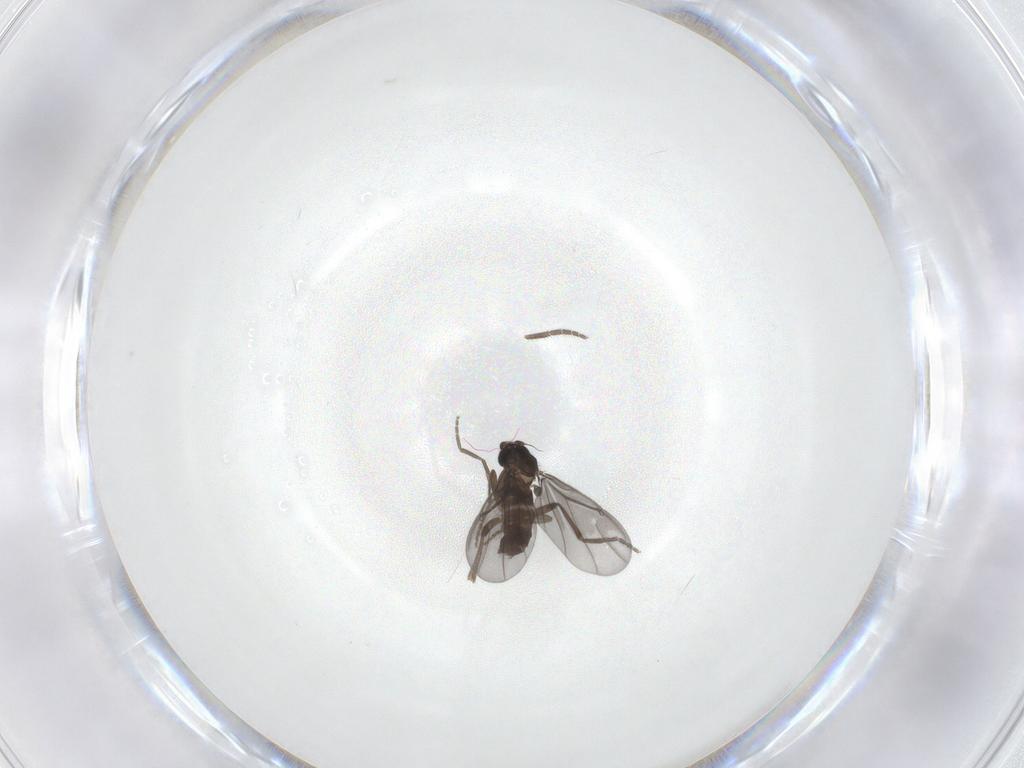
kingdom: Animalia
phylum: Arthropoda
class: Insecta
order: Diptera
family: Phoridae
